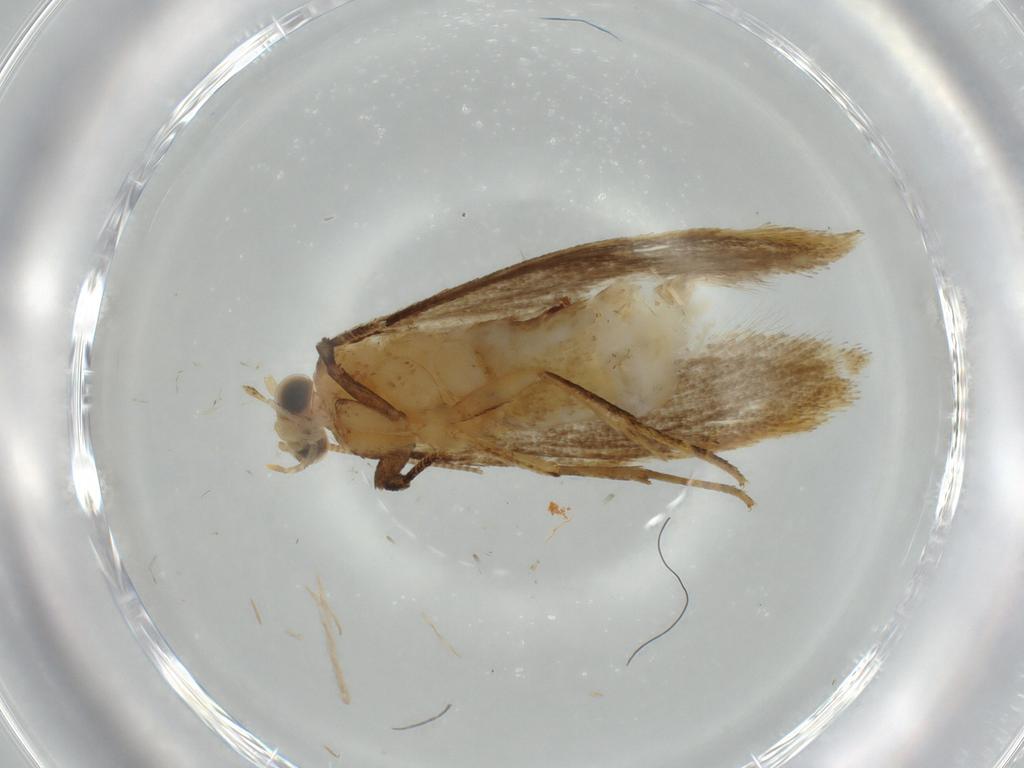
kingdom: Animalia
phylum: Arthropoda
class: Insecta
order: Lepidoptera
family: Cosmopterigidae
